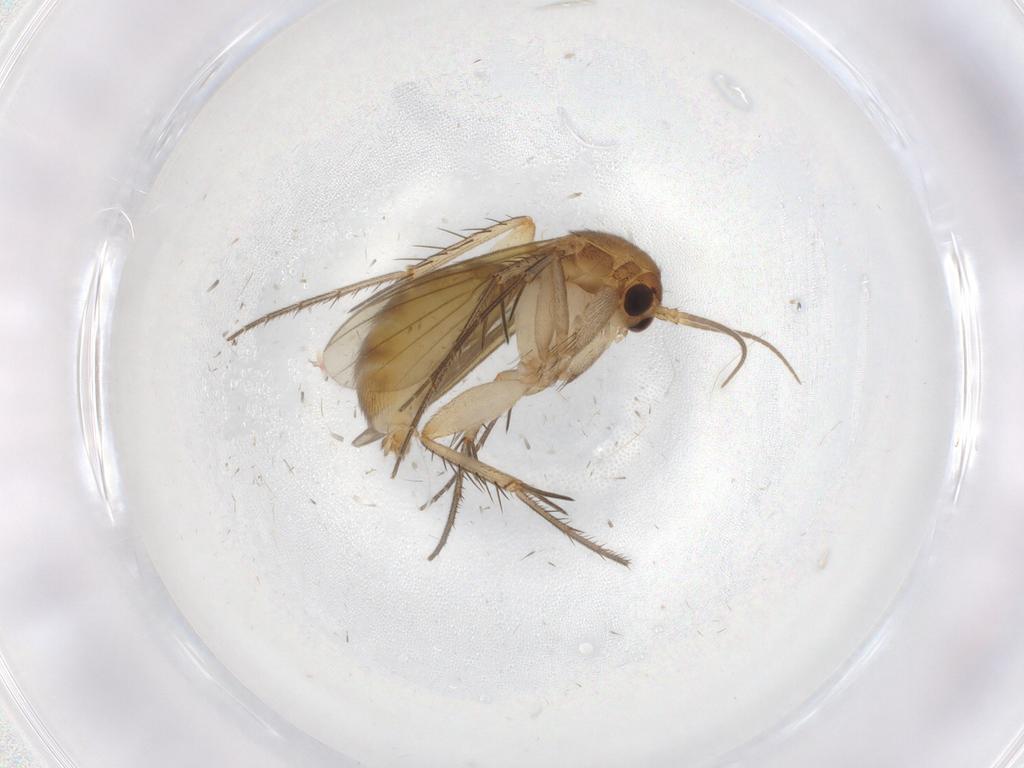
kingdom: Animalia
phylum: Arthropoda
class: Insecta
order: Diptera
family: Mycetophilidae
